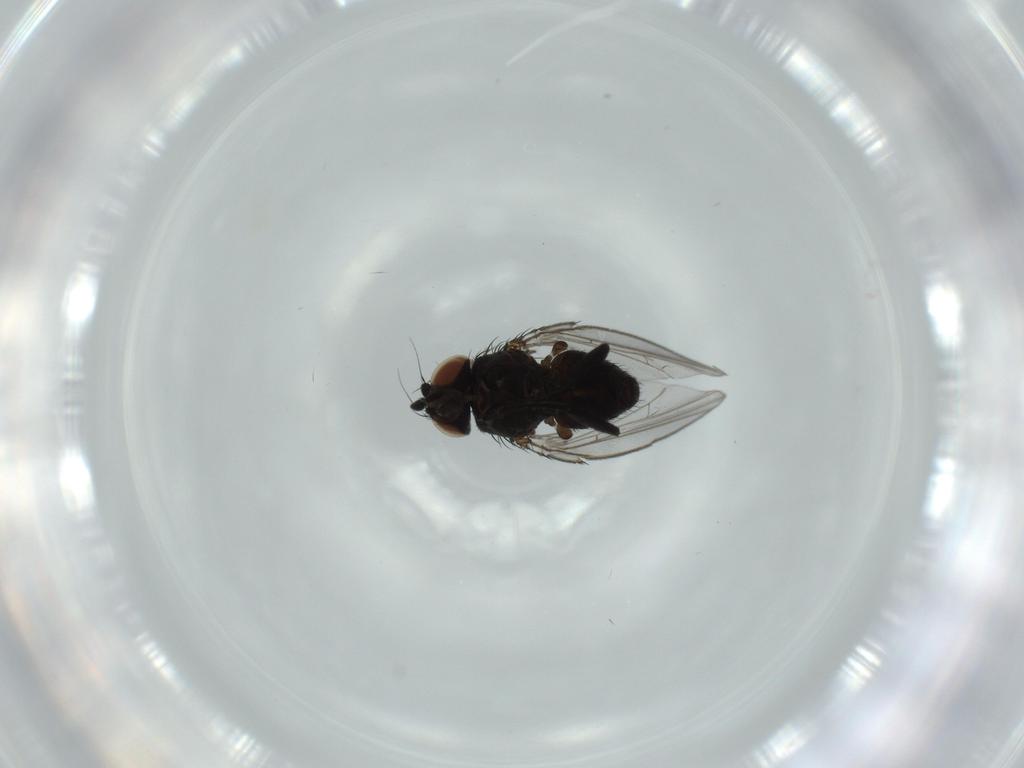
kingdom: Animalia
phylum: Arthropoda
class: Insecta
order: Diptera
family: Milichiidae
